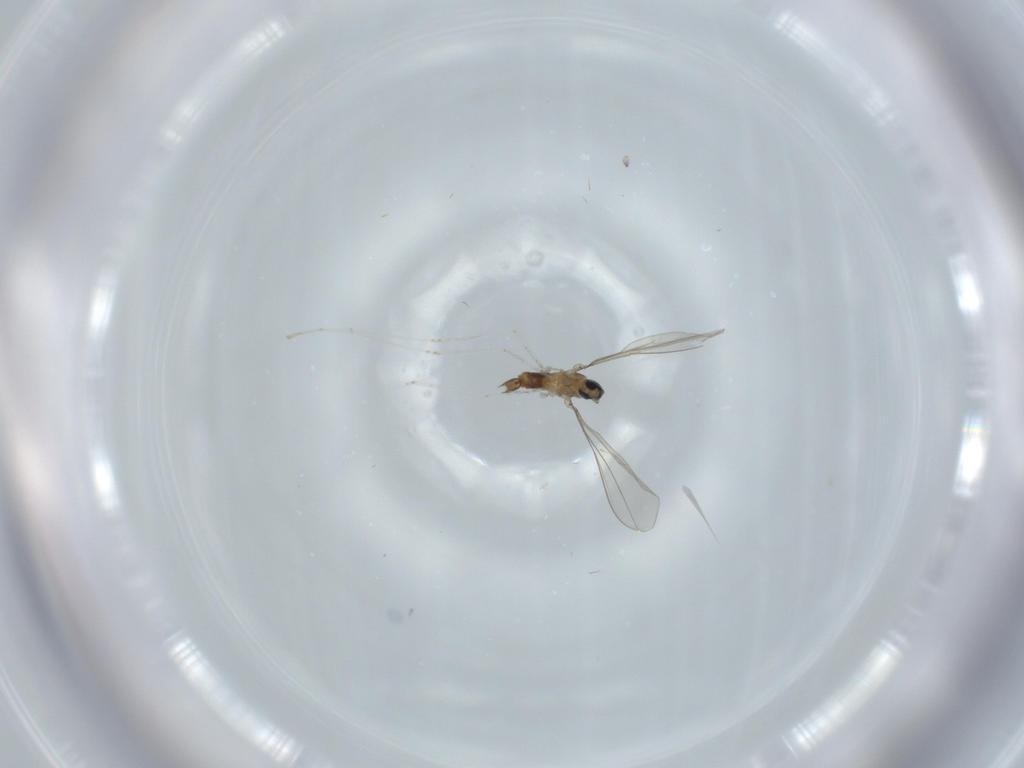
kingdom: Animalia
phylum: Arthropoda
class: Insecta
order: Diptera
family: Cecidomyiidae
